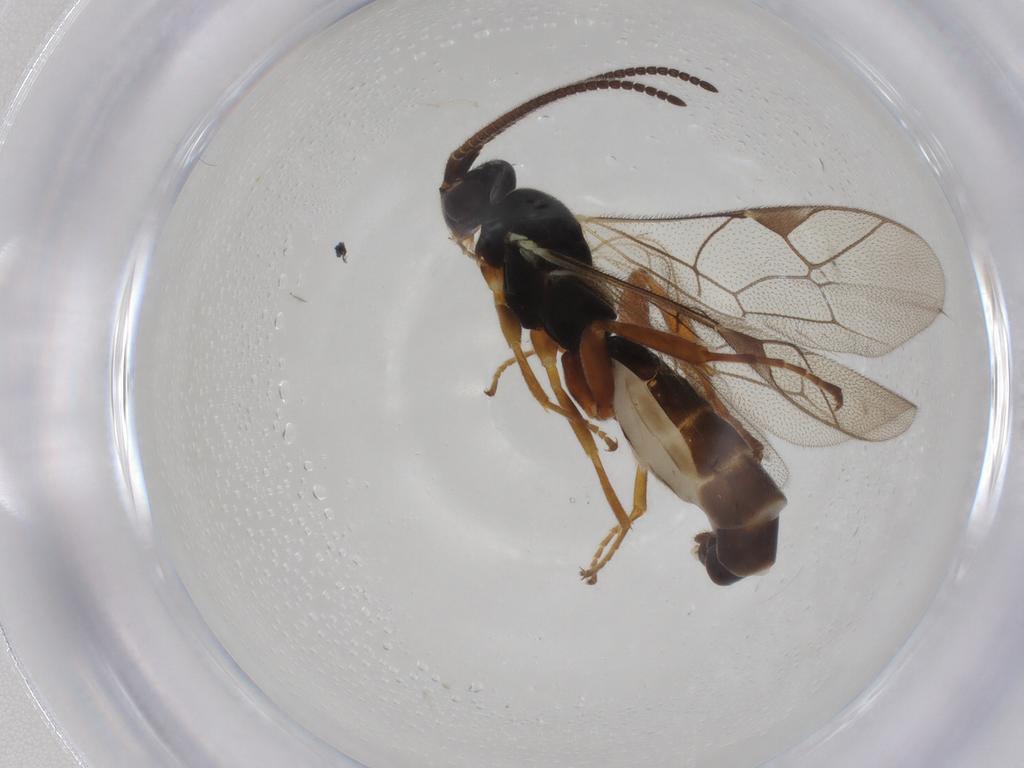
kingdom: Animalia
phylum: Arthropoda
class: Insecta
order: Hymenoptera
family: Ichneumonidae
